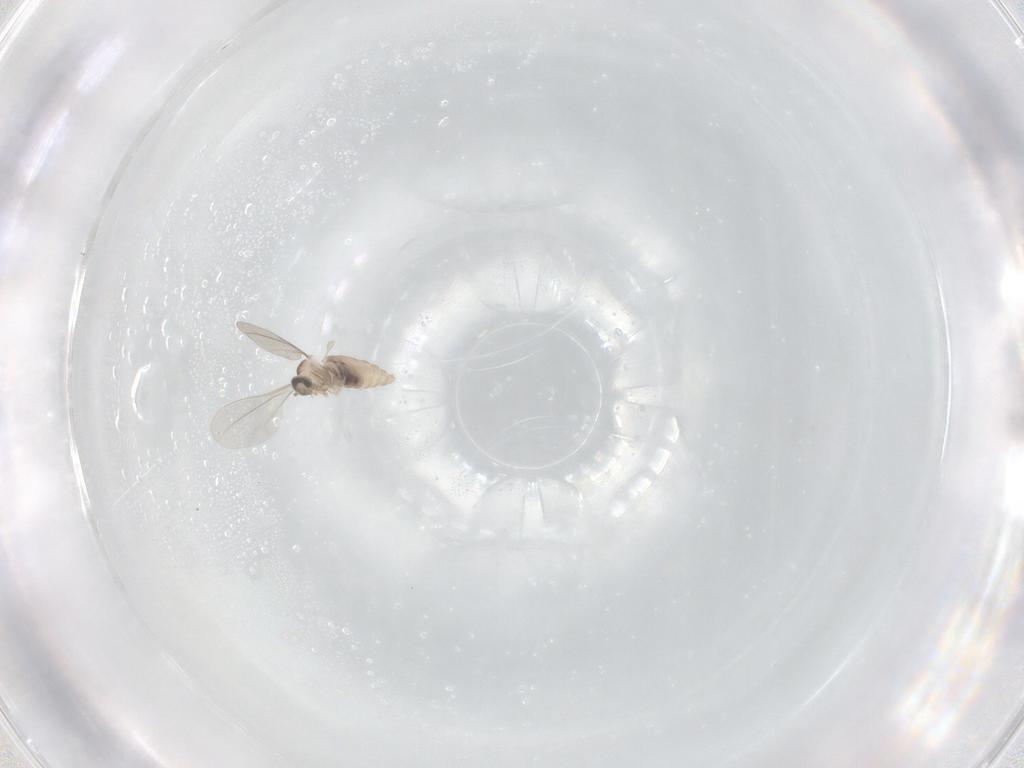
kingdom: Animalia
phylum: Arthropoda
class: Insecta
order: Diptera
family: Cecidomyiidae
